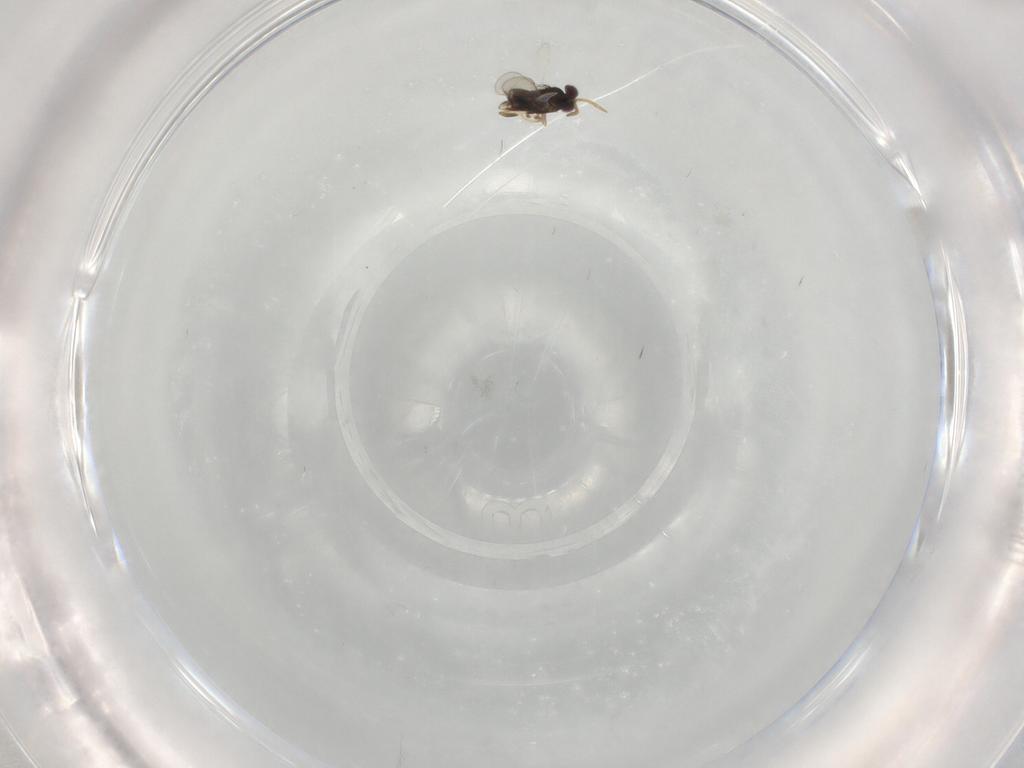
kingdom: Animalia
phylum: Arthropoda
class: Insecta
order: Hymenoptera
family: Aphelinidae
